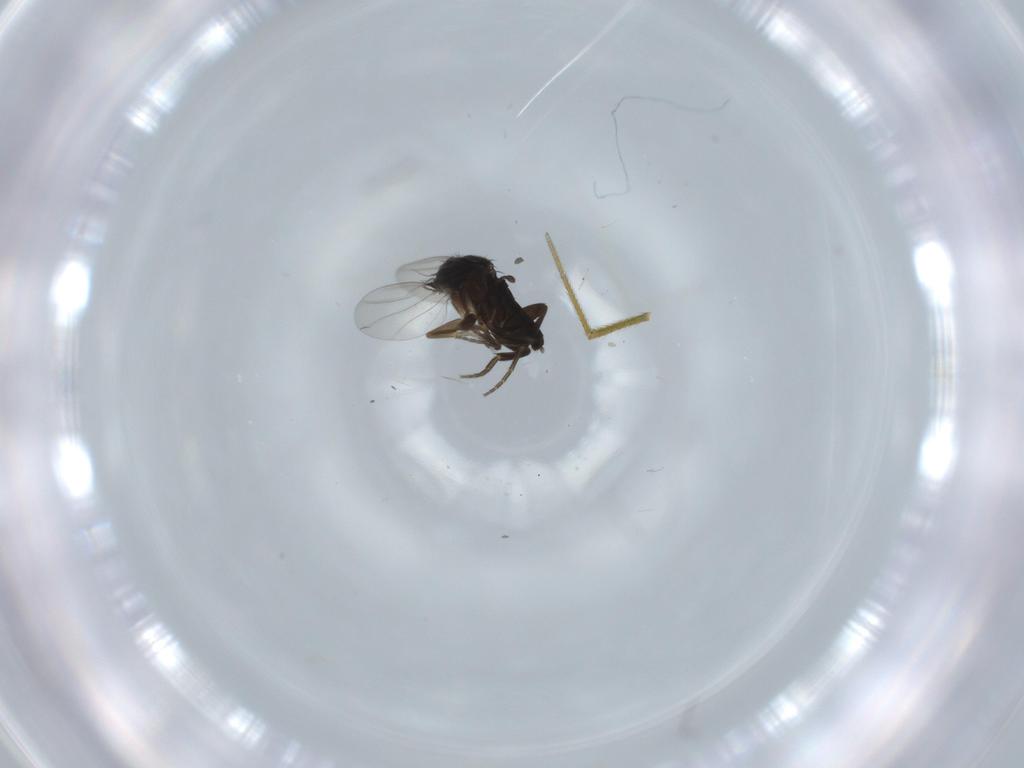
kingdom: Animalia
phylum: Arthropoda
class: Insecta
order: Diptera
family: Phoridae
